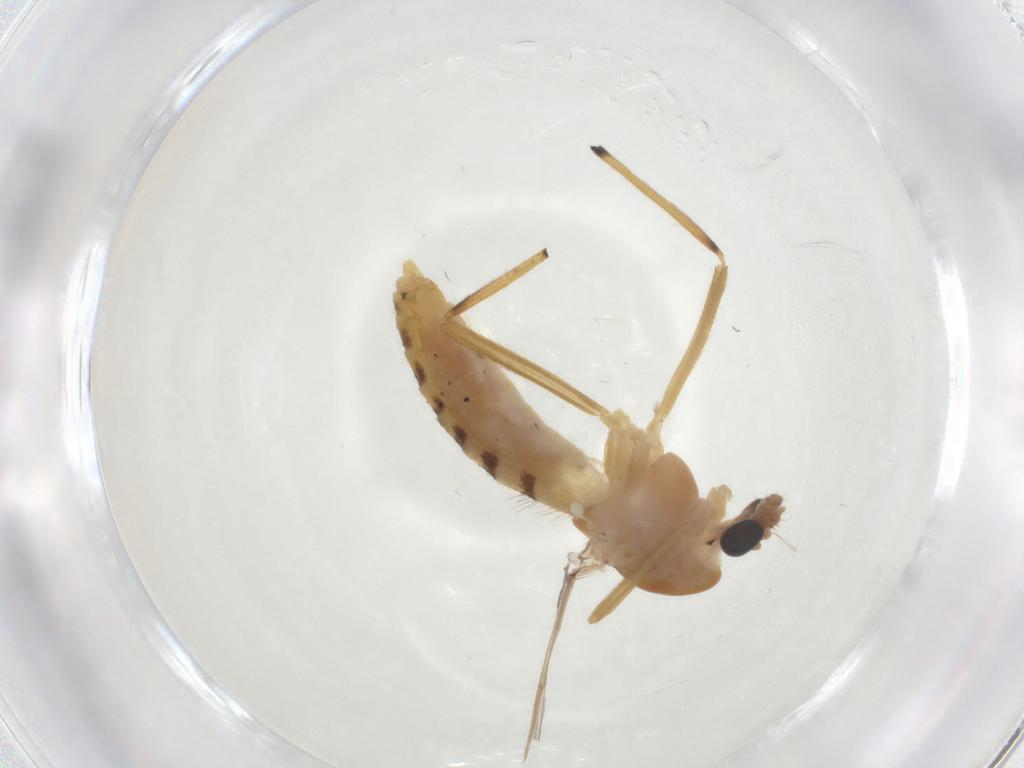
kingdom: Animalia
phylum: Arthropoda
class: Insecta
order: Diptera
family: Chironomidae
